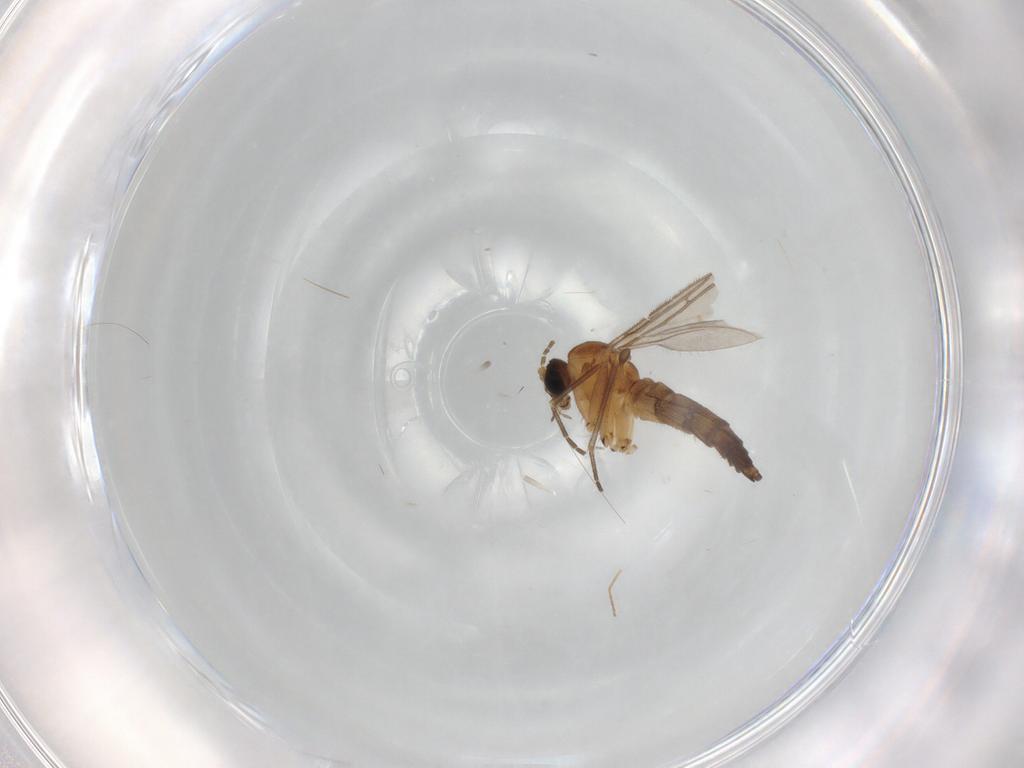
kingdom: Animalia
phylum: Arthropoda
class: Insecta
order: Diptera
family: Sciaridae
